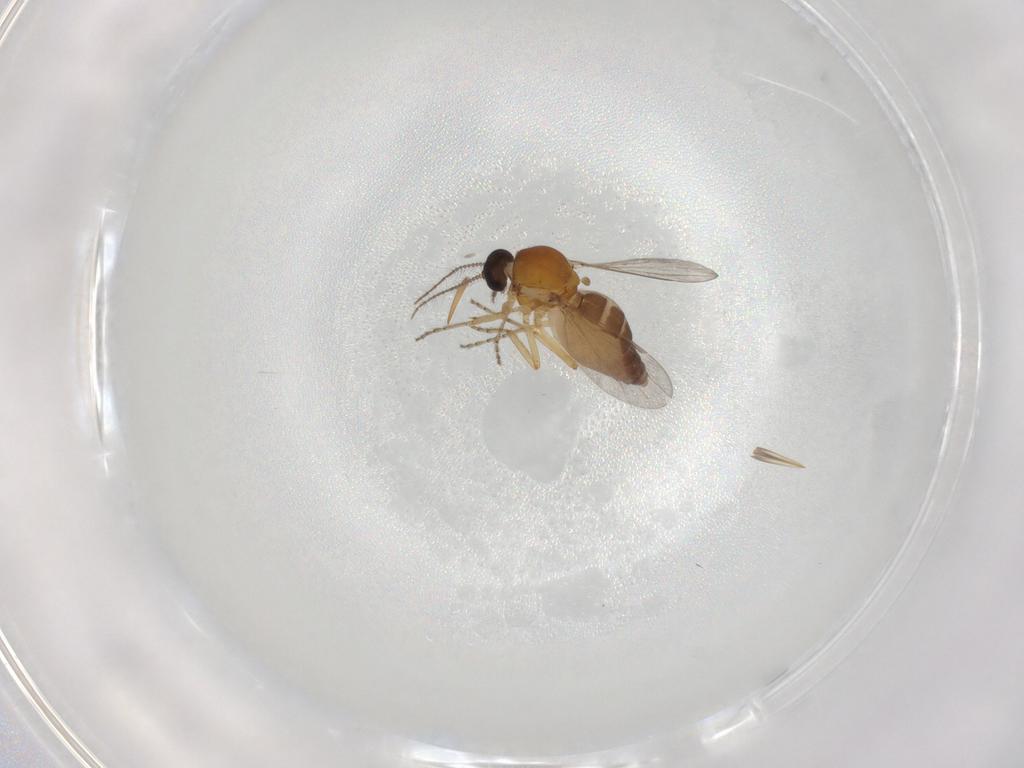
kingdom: Animalia
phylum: Arthropoda
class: Insecta
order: Diptera
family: Ceratopogonidae
